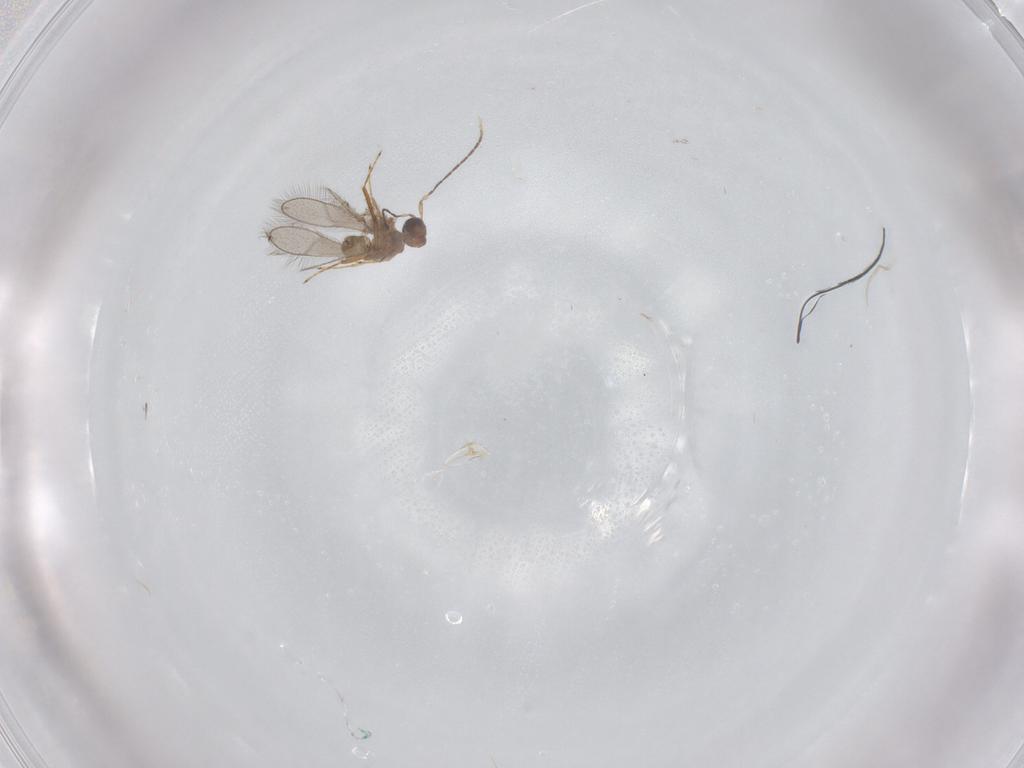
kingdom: Animalia
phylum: Arthropoda
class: Insecta
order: Hymenoptera
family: Mymaridae
